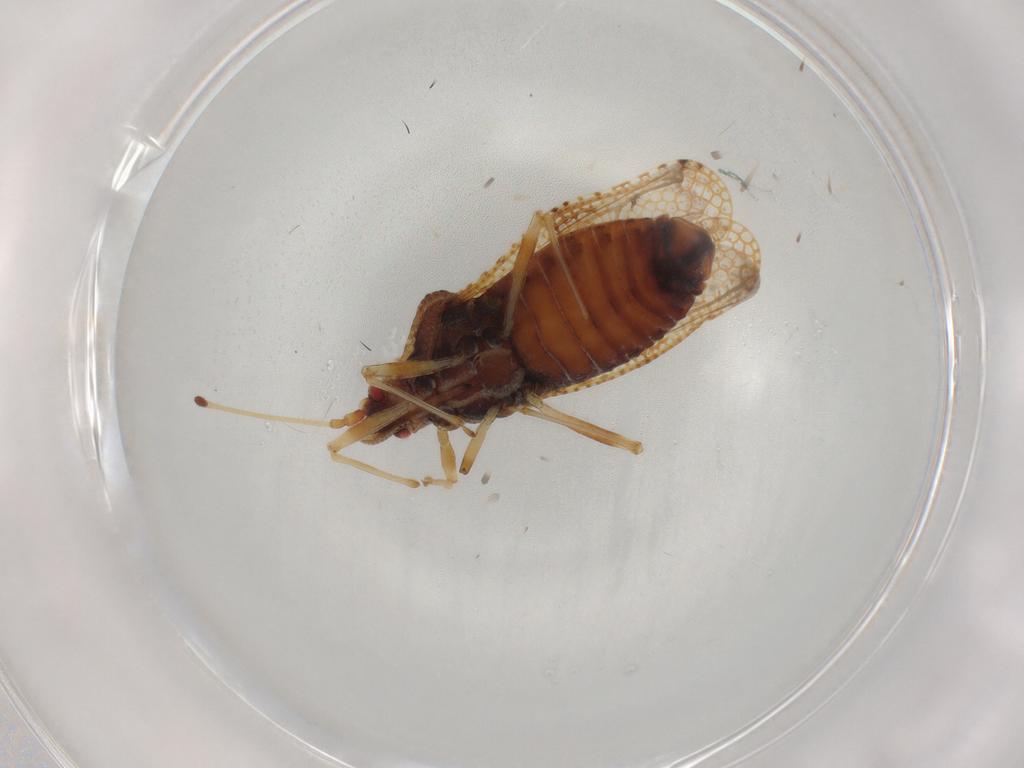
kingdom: Animalia
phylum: Arthropoda
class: Insecta
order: Hemiptera
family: Tingidae
